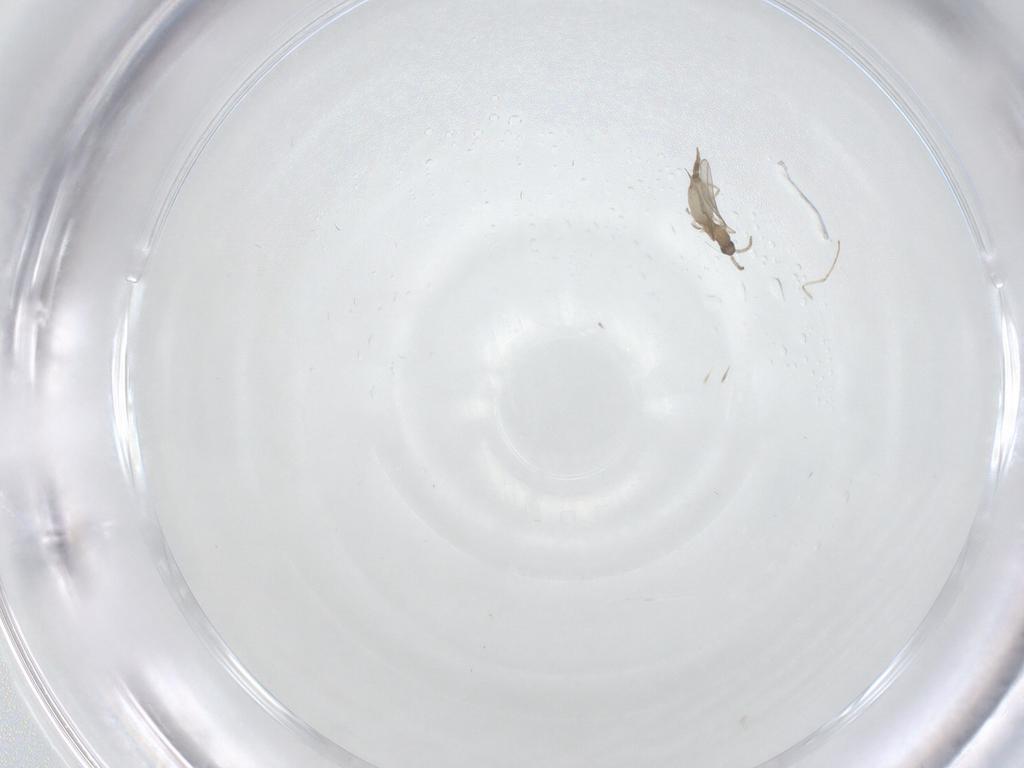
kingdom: Animalia
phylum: Arthropoda
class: Insecta
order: Diptera
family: Cecidomyiidae
